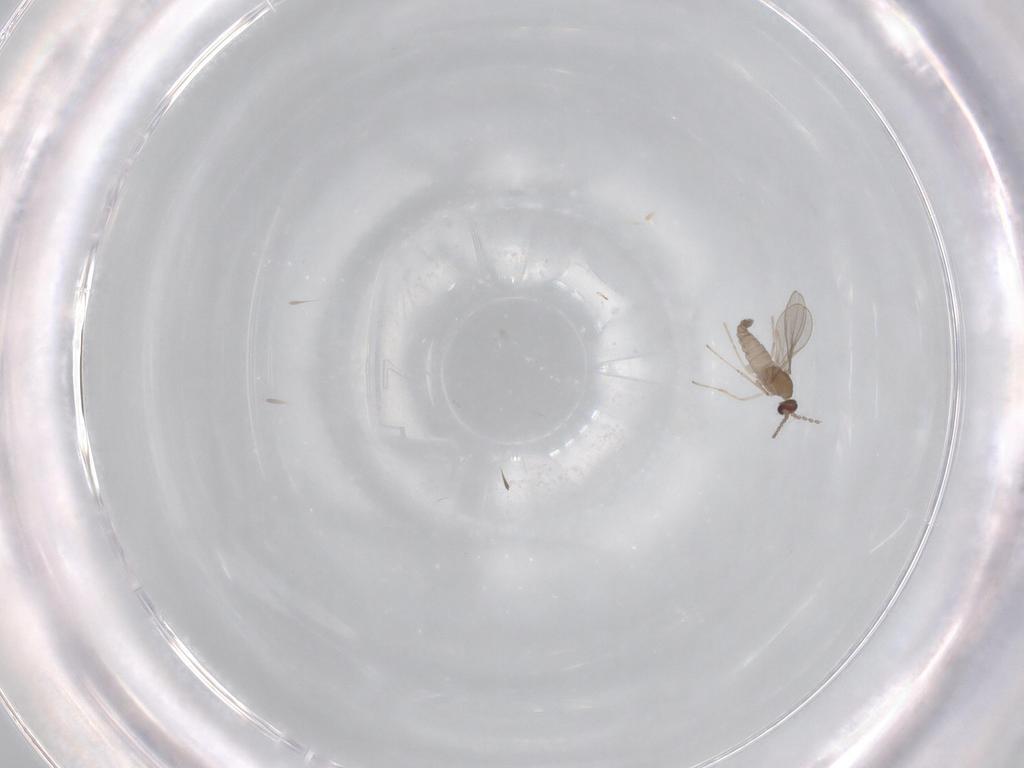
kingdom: Animalia
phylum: Arthropoda
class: Insecta
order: Diptera
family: Cecidomyiidae
